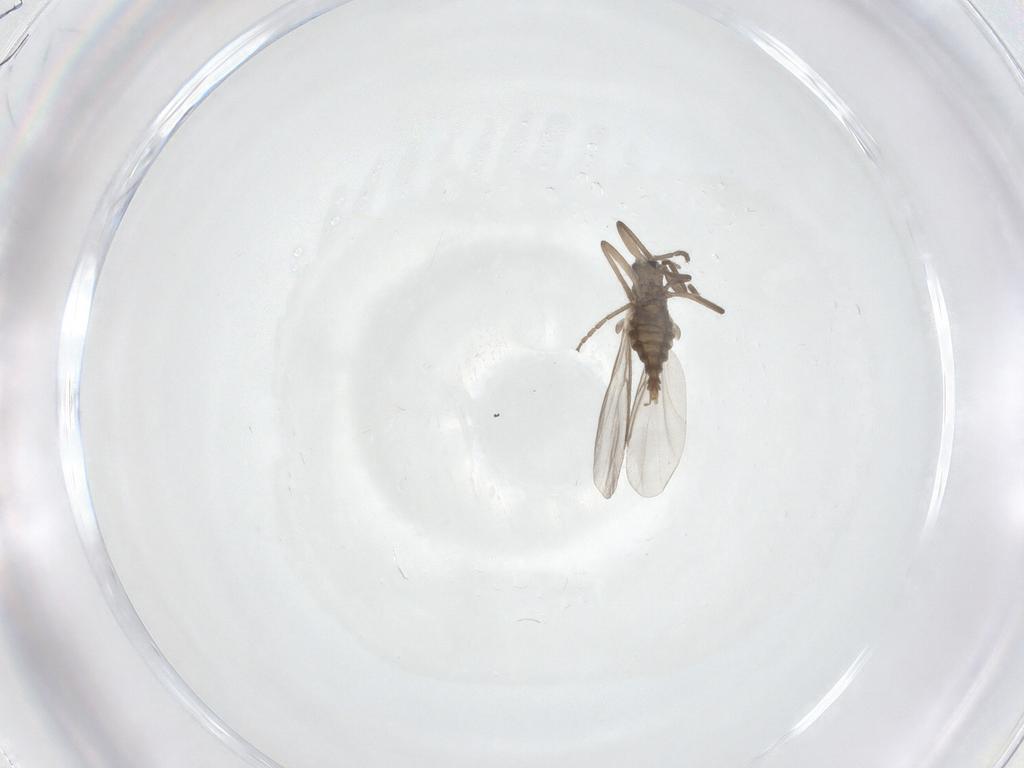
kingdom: Animalia
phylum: Arthropoda
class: Insecta
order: Diptera
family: Cecidomyiidae
